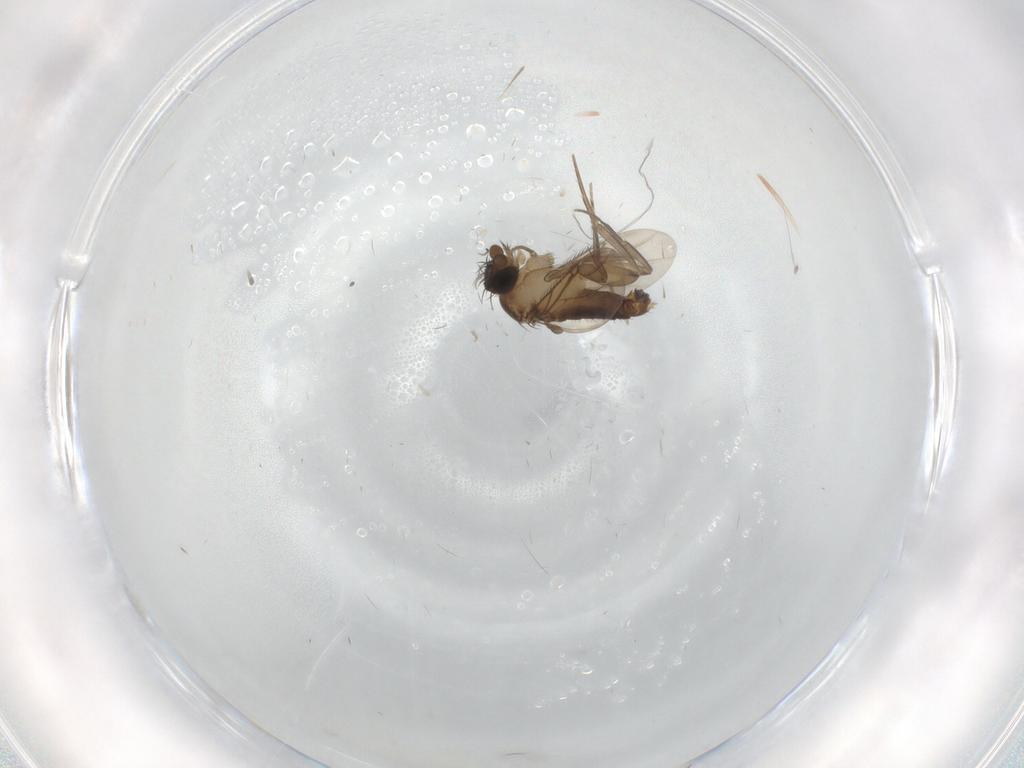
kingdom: Animalia
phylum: Arthropoda
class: Insecta
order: Diptera
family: Phoridae
